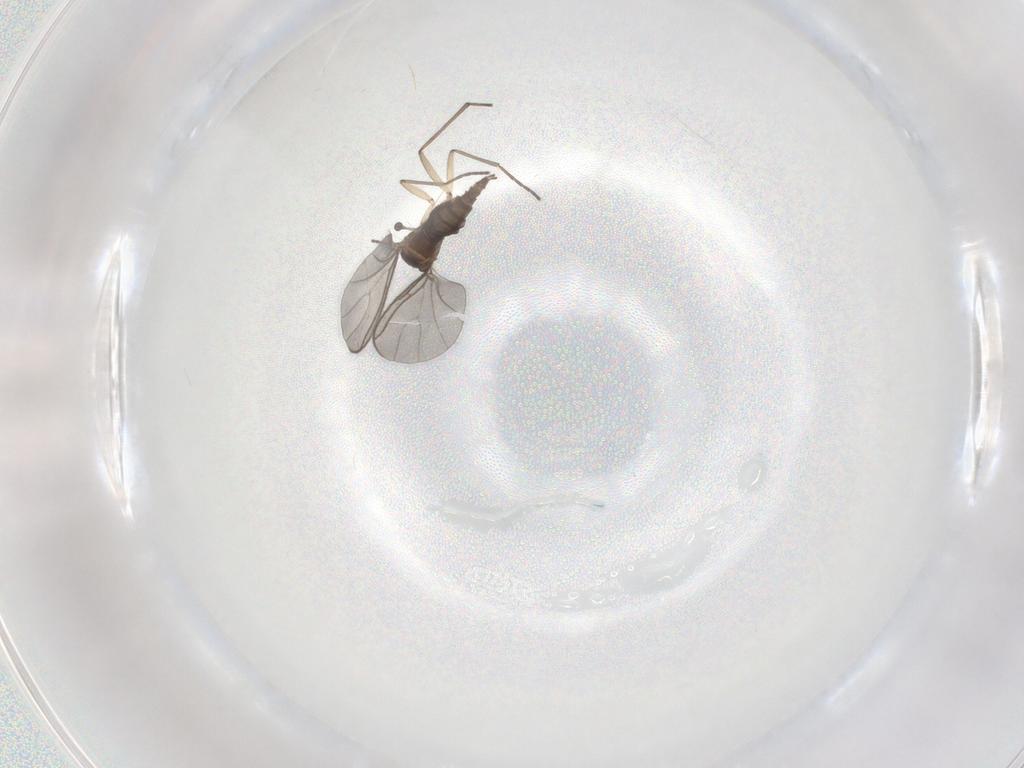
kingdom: Animalia
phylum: Arthropoda
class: Insecta
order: Diptera
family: Sciaridae
